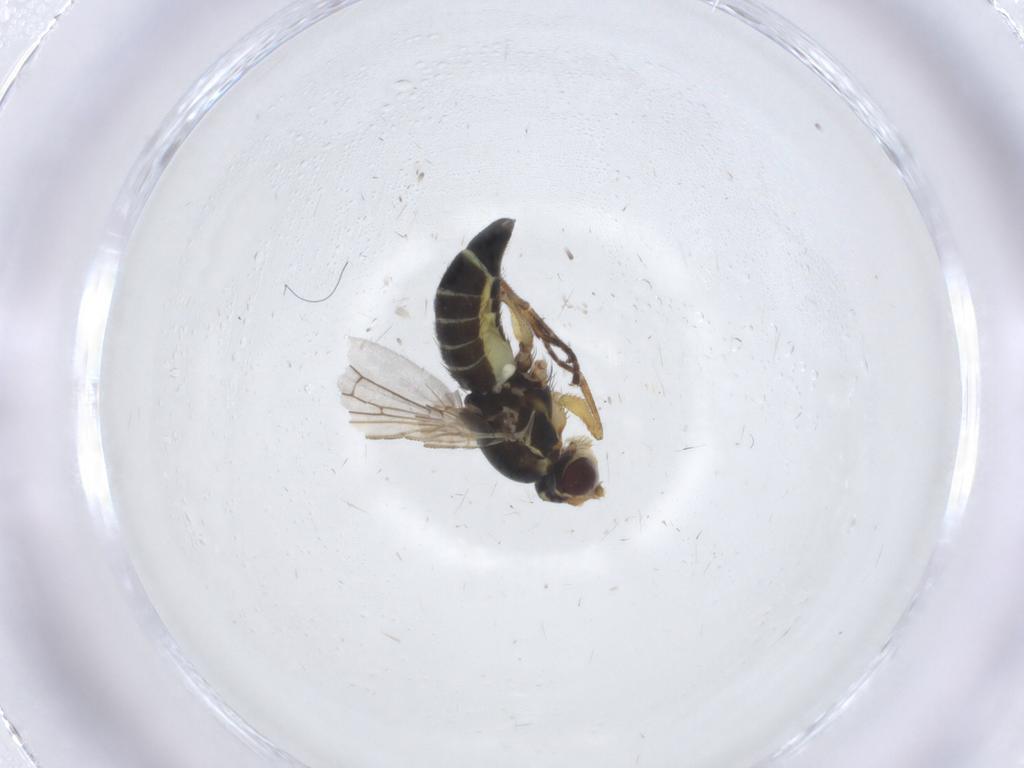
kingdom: Animalia
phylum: Arthropoda
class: Insecta
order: Diptera
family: Agromyzidae
